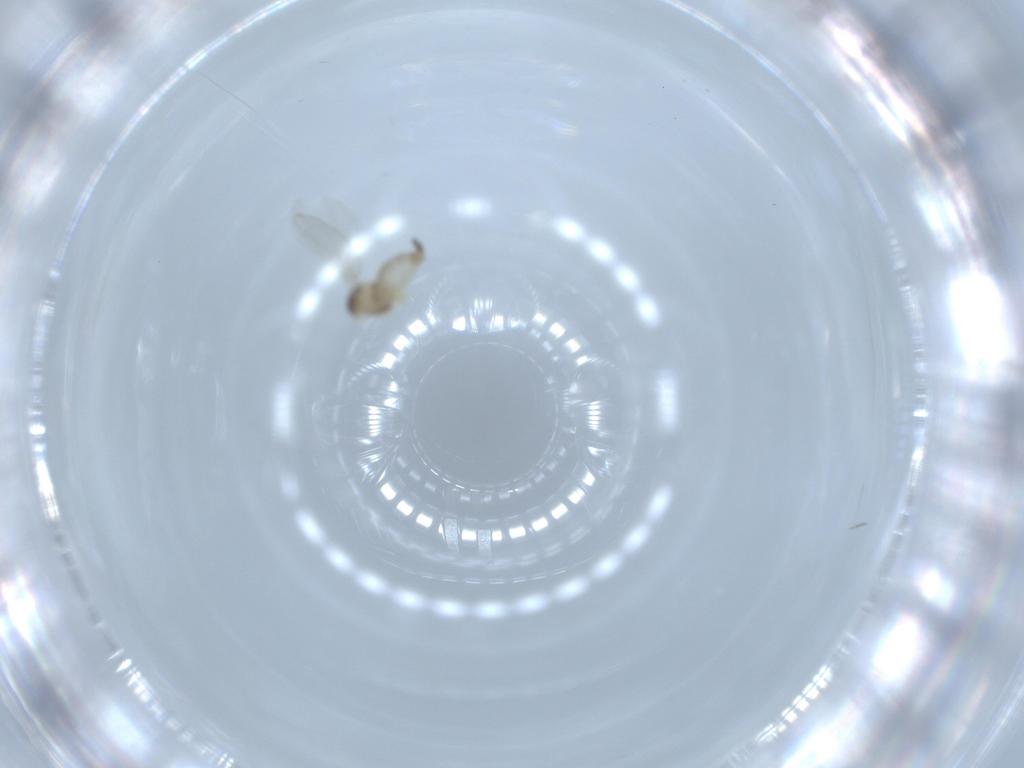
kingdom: Animalia
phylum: Arthropoda
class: Insecta
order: Diptera
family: Cecidomyiidae
